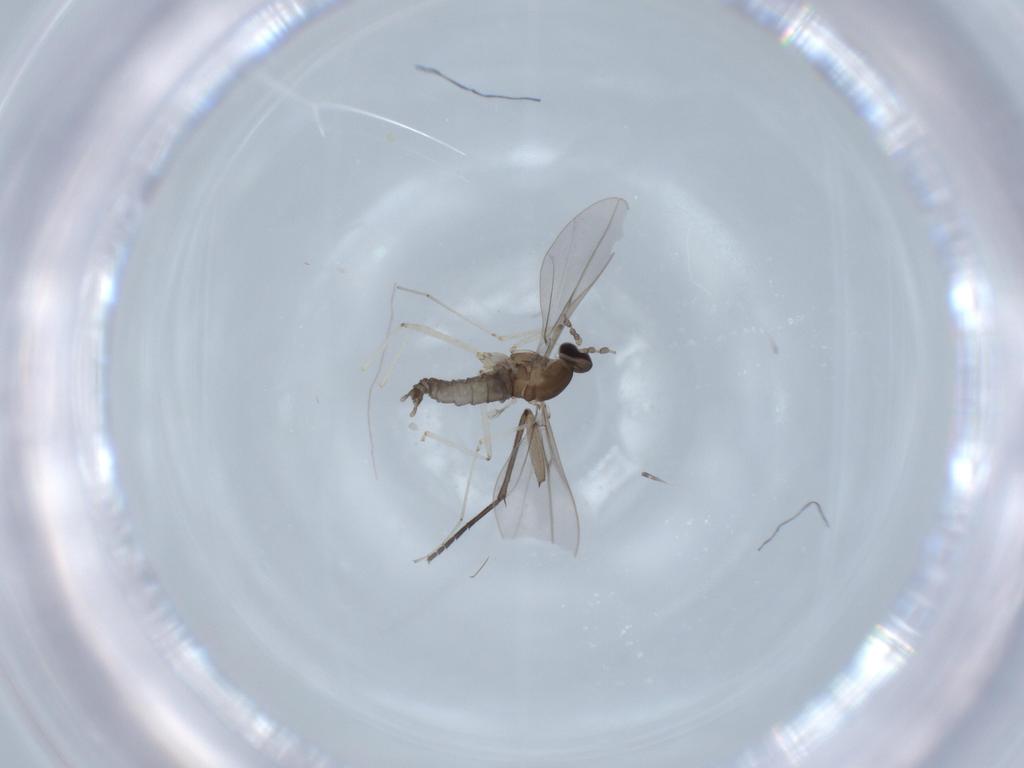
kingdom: Animalia
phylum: Arthropoda
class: Insecta
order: Diptera
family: Cecidomyiidae
